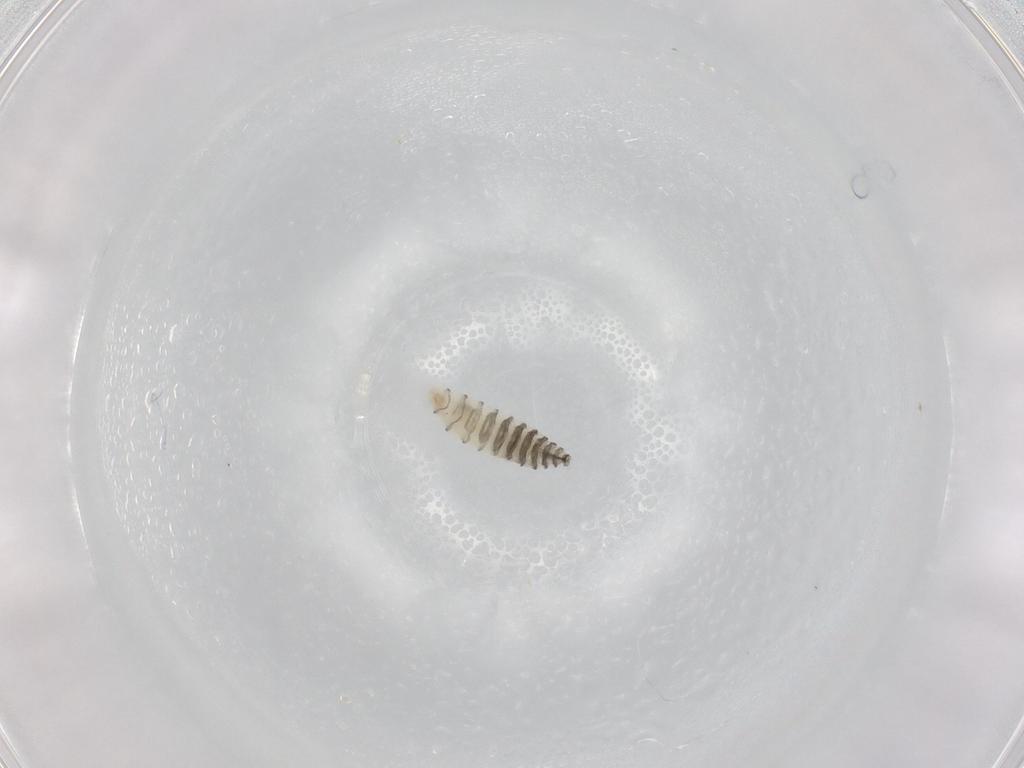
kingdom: Animalia
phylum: Arthropoda
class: Insecta
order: Diptera
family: Sarcophagidae
